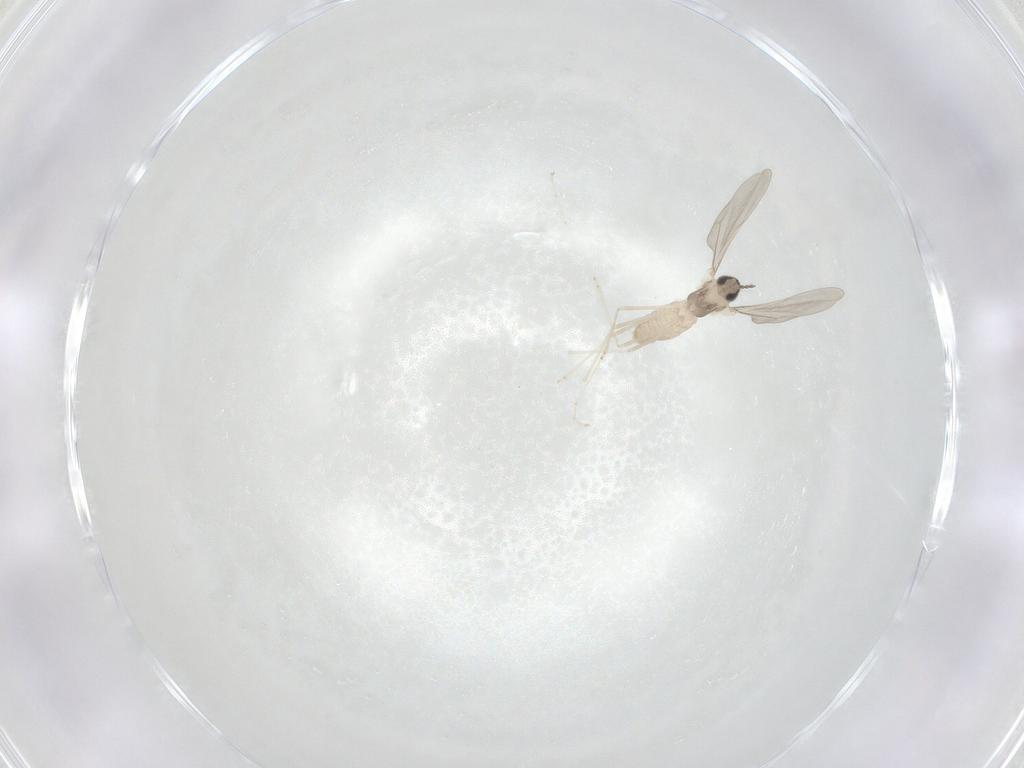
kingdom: Animalia
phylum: Arthropoda
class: Insecta
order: Diptera
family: Cecidomyiidae
